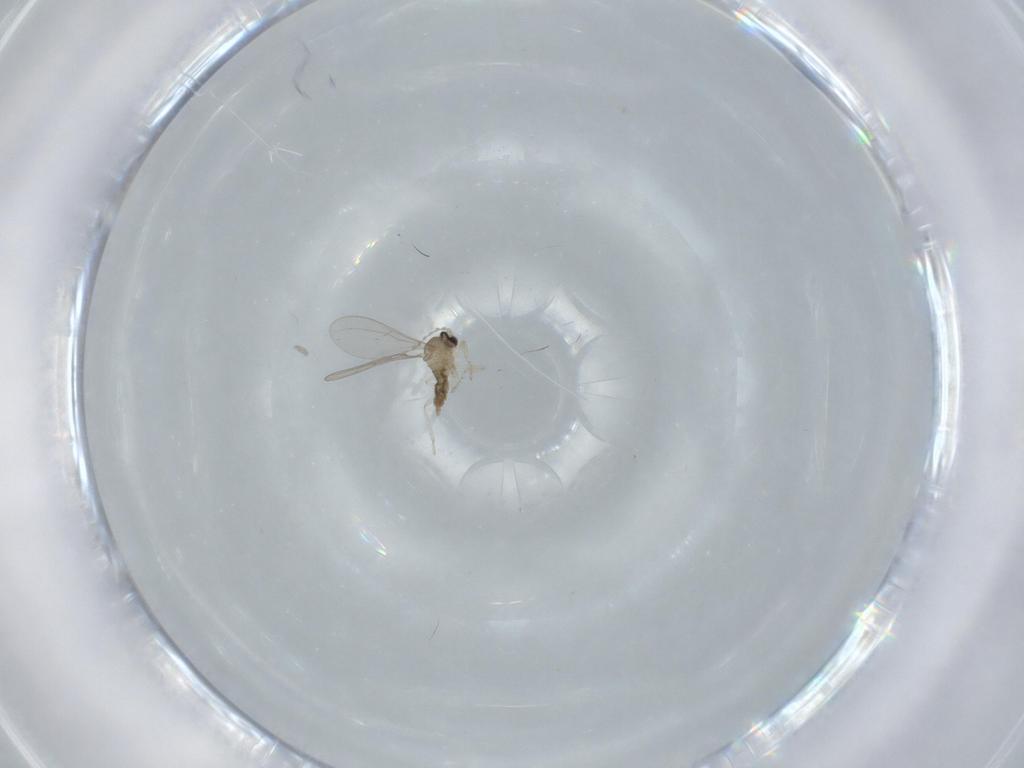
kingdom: Animalia
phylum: Arthropoda
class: Insecta
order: Diptera
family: Cecidomyiidae
